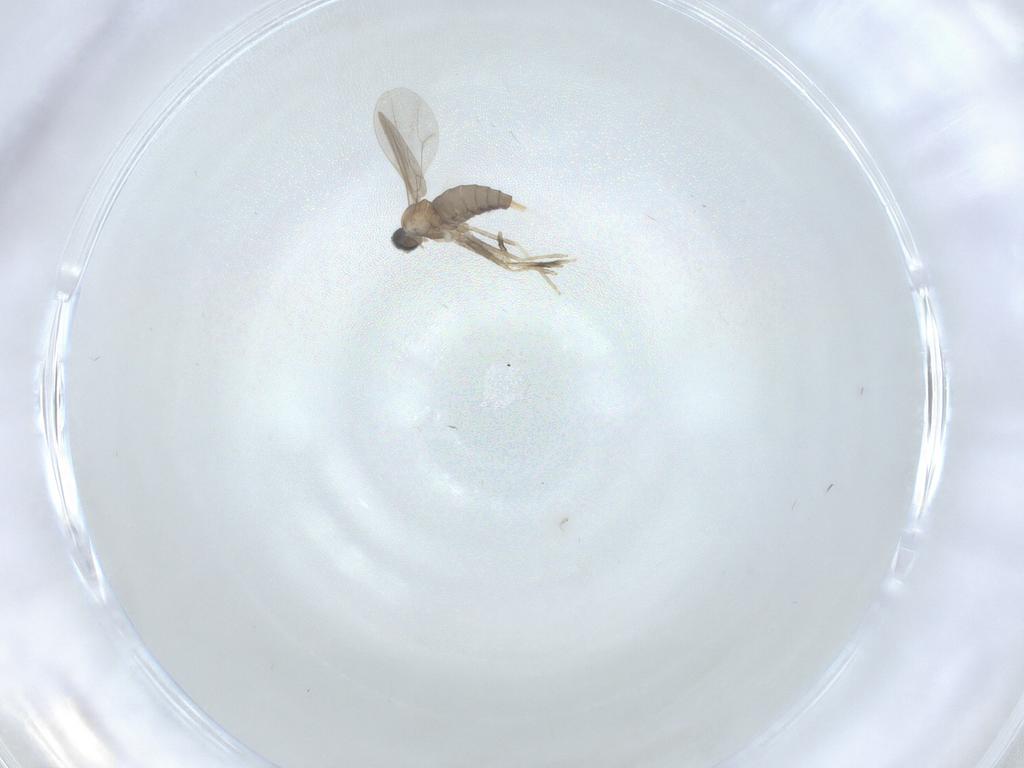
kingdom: Animalia
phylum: Arthropoda
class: Insecta
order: Diptera
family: Cecidomyiidae
